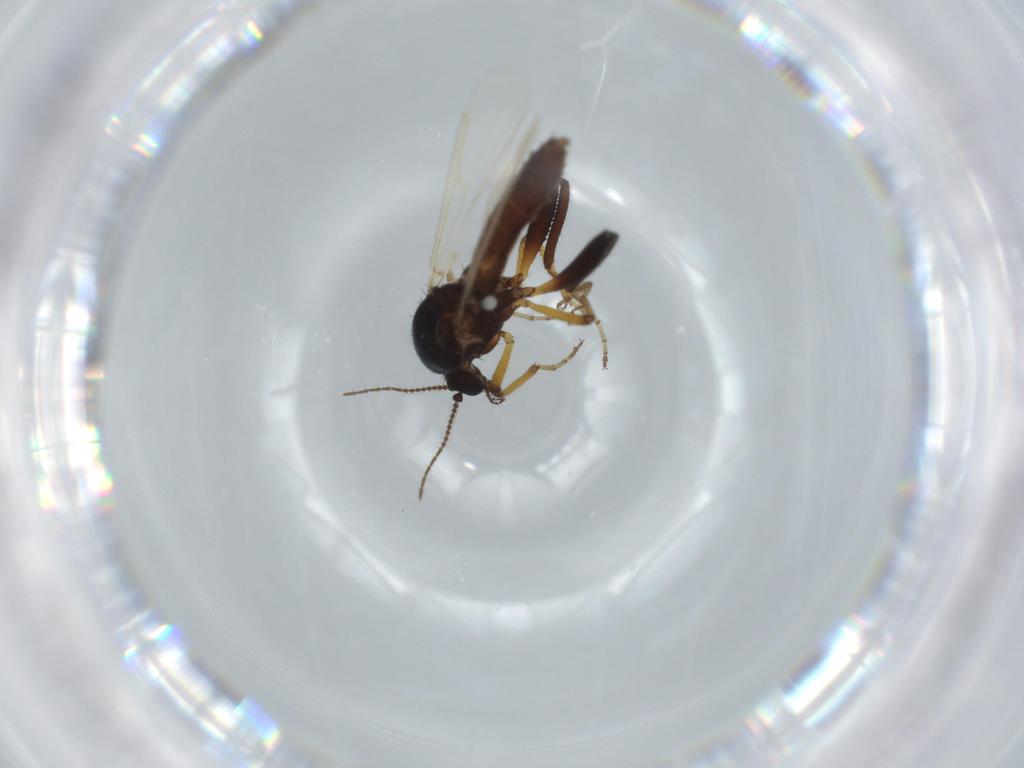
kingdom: Animalia
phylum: Arthropoda
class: Insecta
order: Diptera
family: Ceratopogonidae
